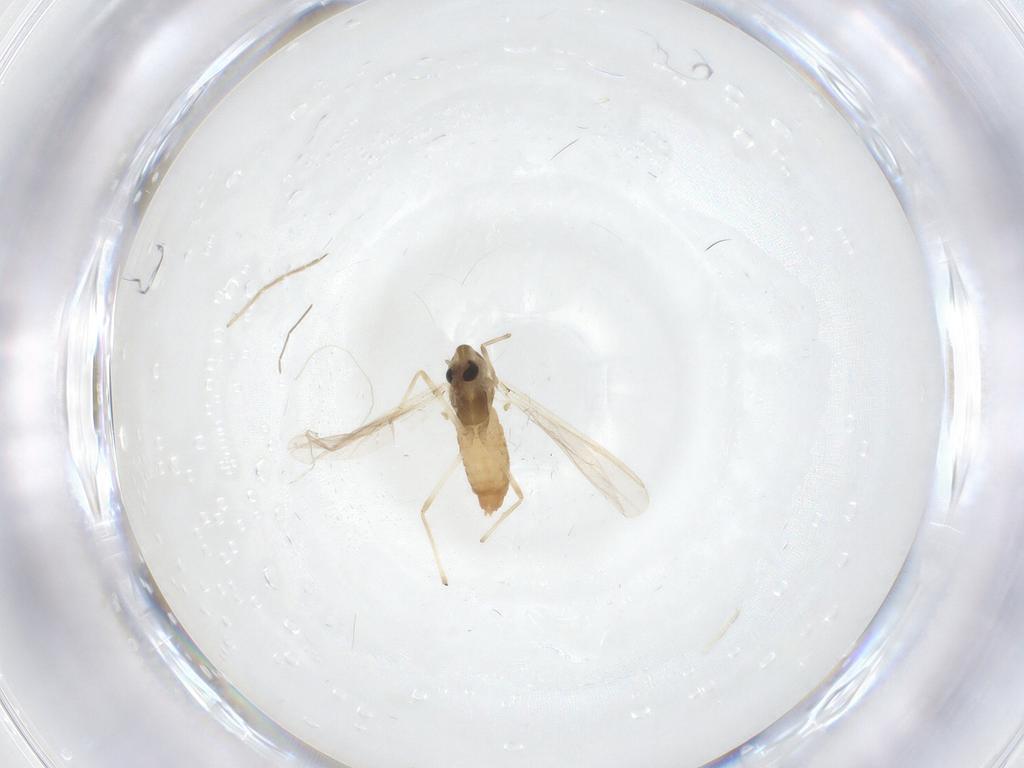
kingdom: Animalia
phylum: Arthropoda
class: Insecta
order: Diptera
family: Chironomidae
